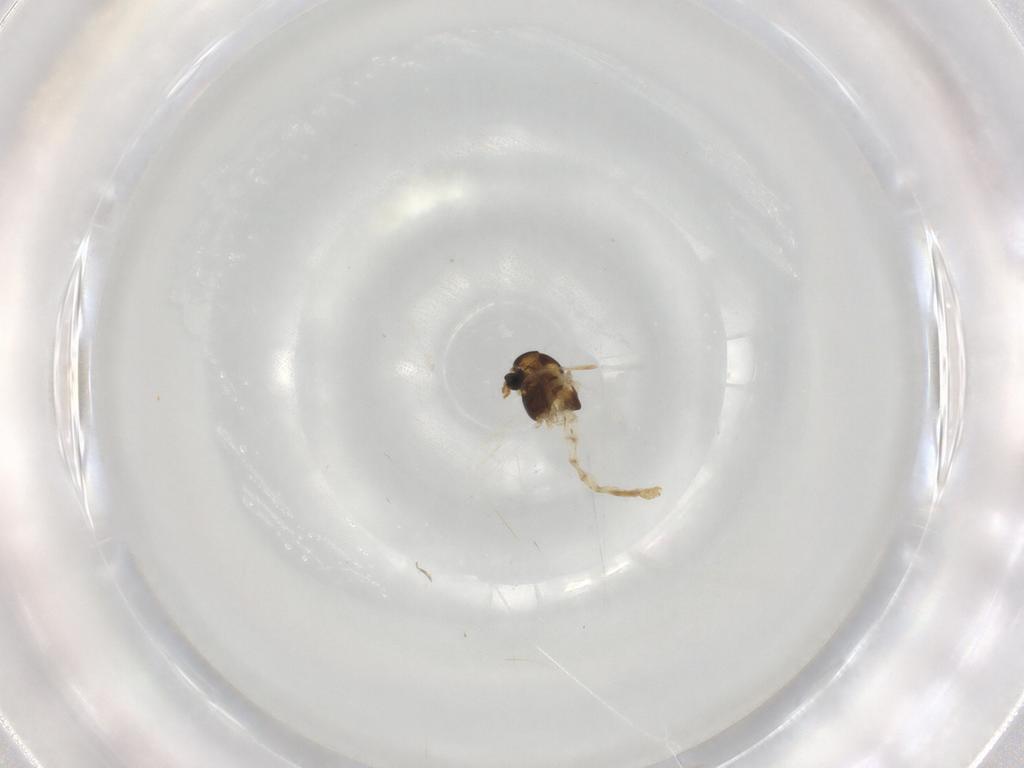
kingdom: Animalia
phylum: Arthropoda
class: Insecta
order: Diptera
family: Chironomidae
